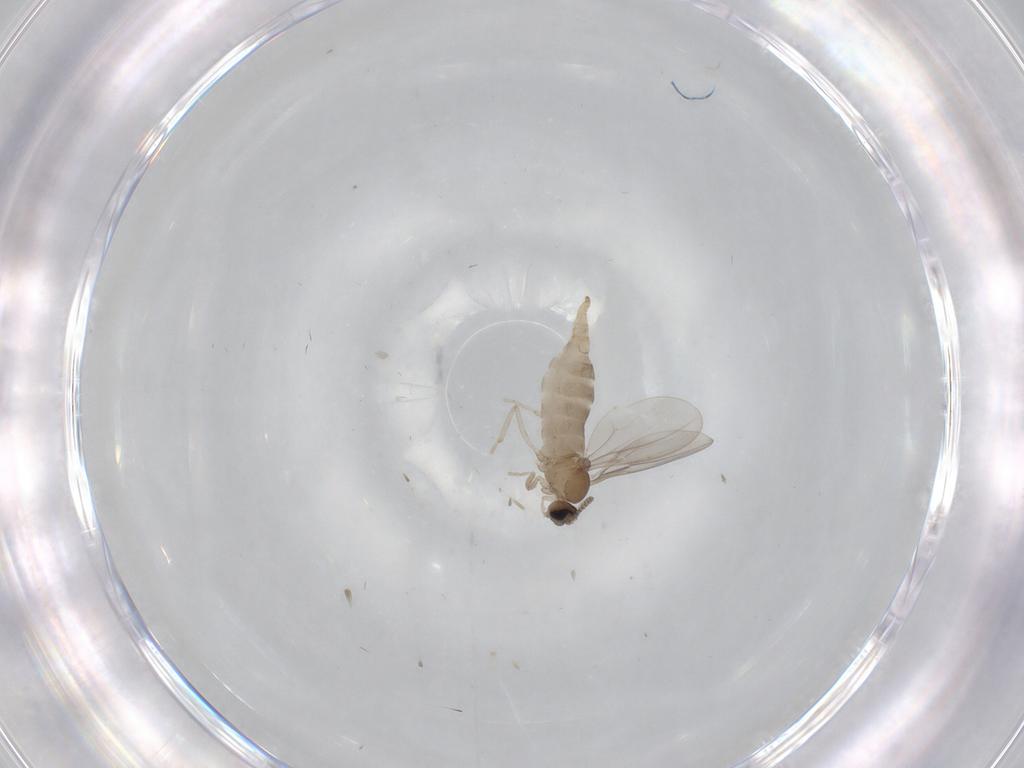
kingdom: Animalia
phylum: Arthropoda
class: Insecta
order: Diptera
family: Cecidomyiidae
